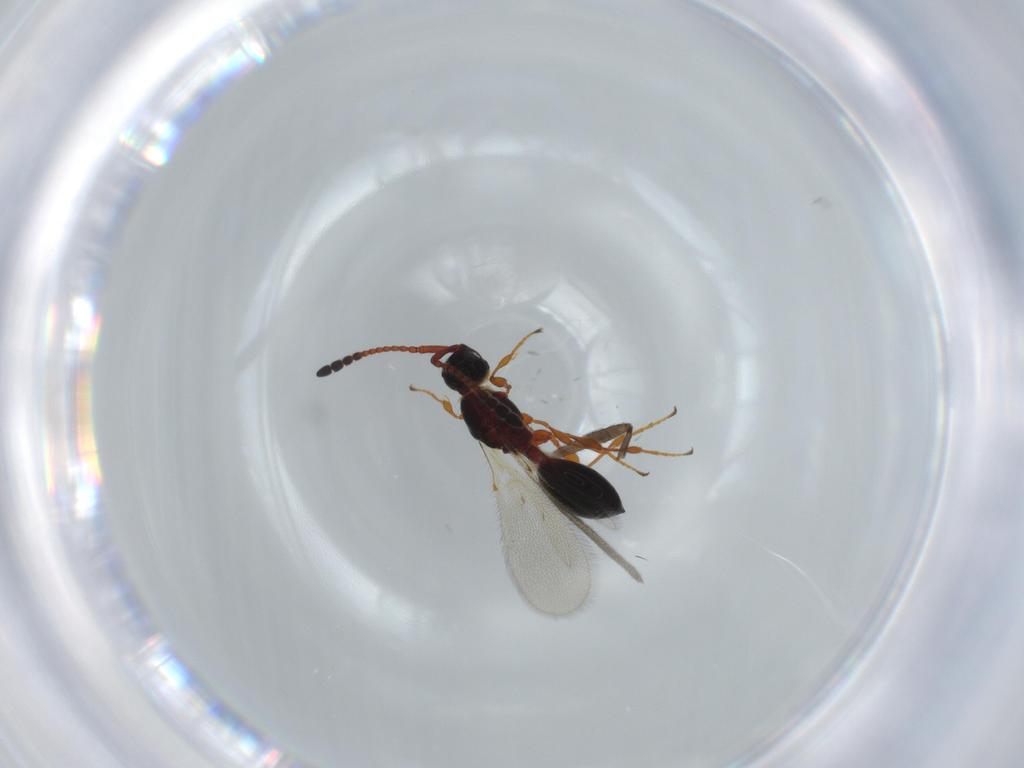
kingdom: Animalia
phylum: Arthropoda
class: Insecta
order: Hymenoptera
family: Diapriidae
